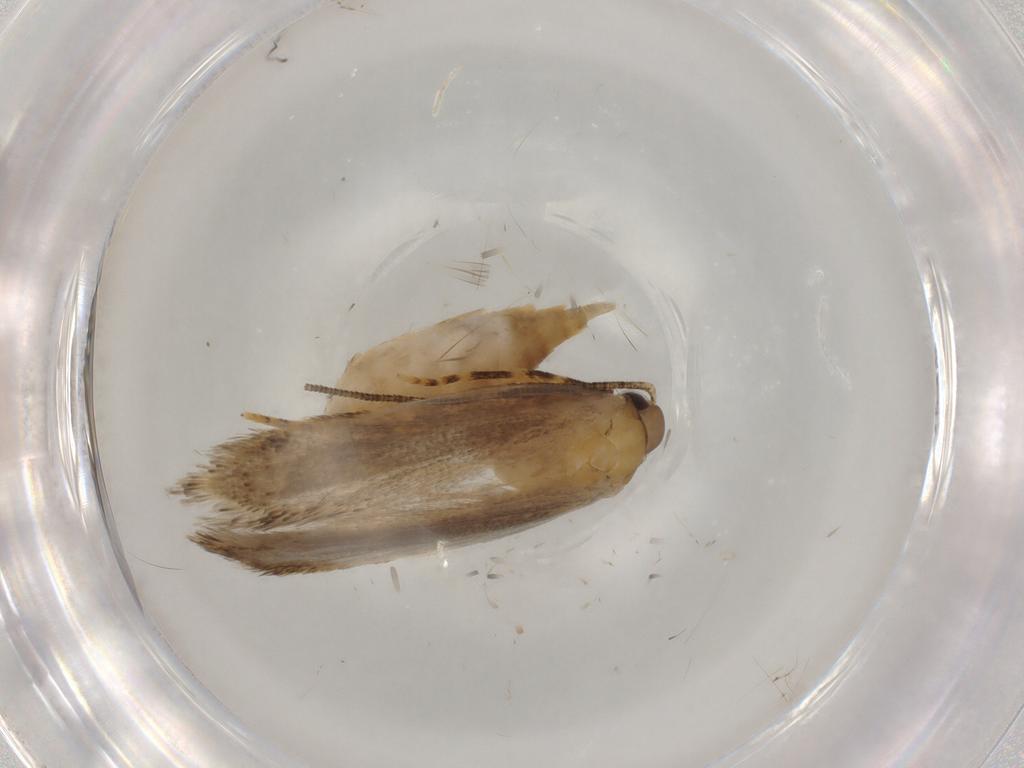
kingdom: Animalia
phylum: Arthropoda
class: Insecta
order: Lepidoptera
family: Autostichidae
